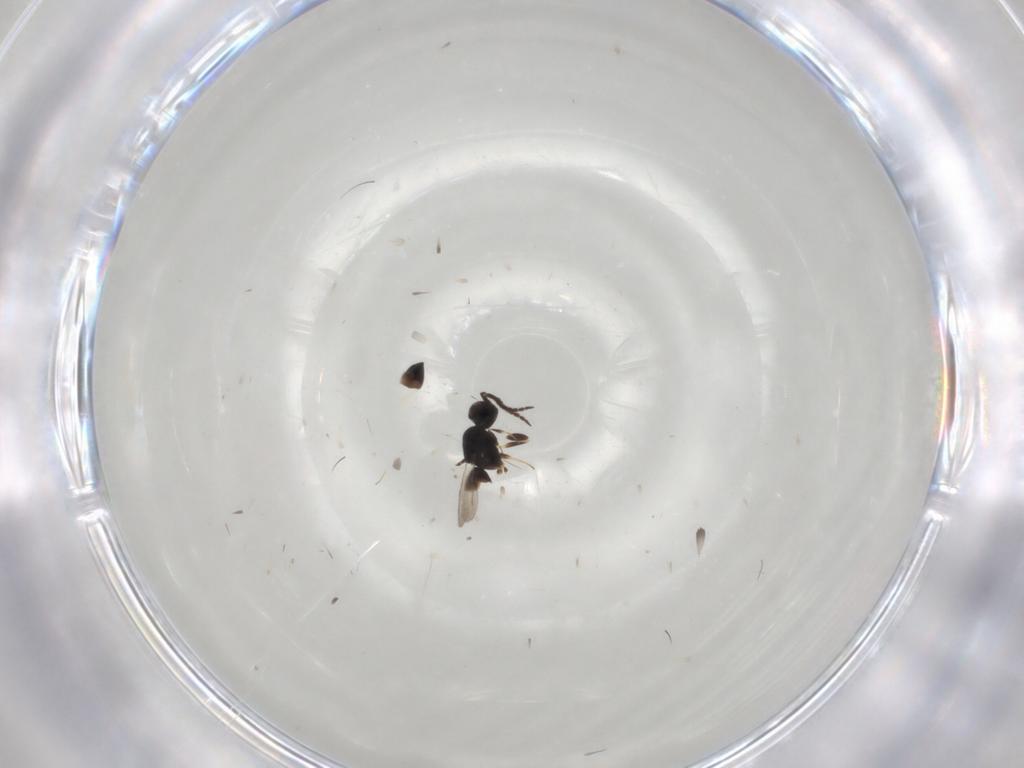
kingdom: Animalia
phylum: Arthropoda
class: Insecta
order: Hymenoptera
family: Ceraphronidae
